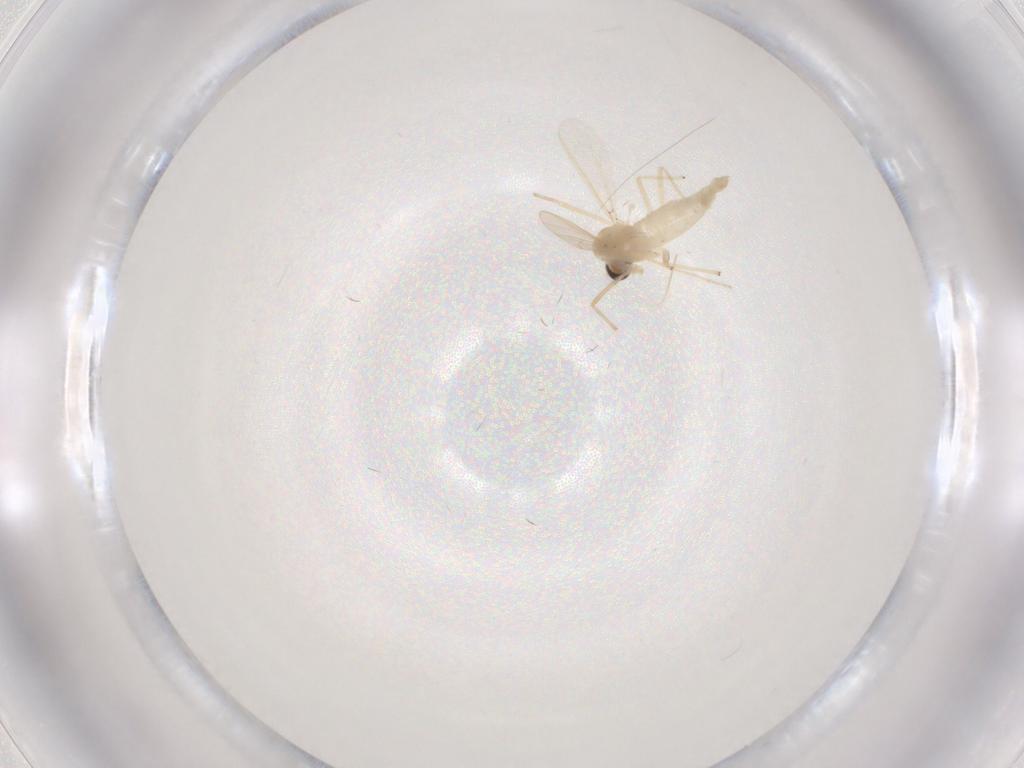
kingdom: Animalia
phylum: Arthropoda
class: Insecta
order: Diptera
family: Chironomidae
